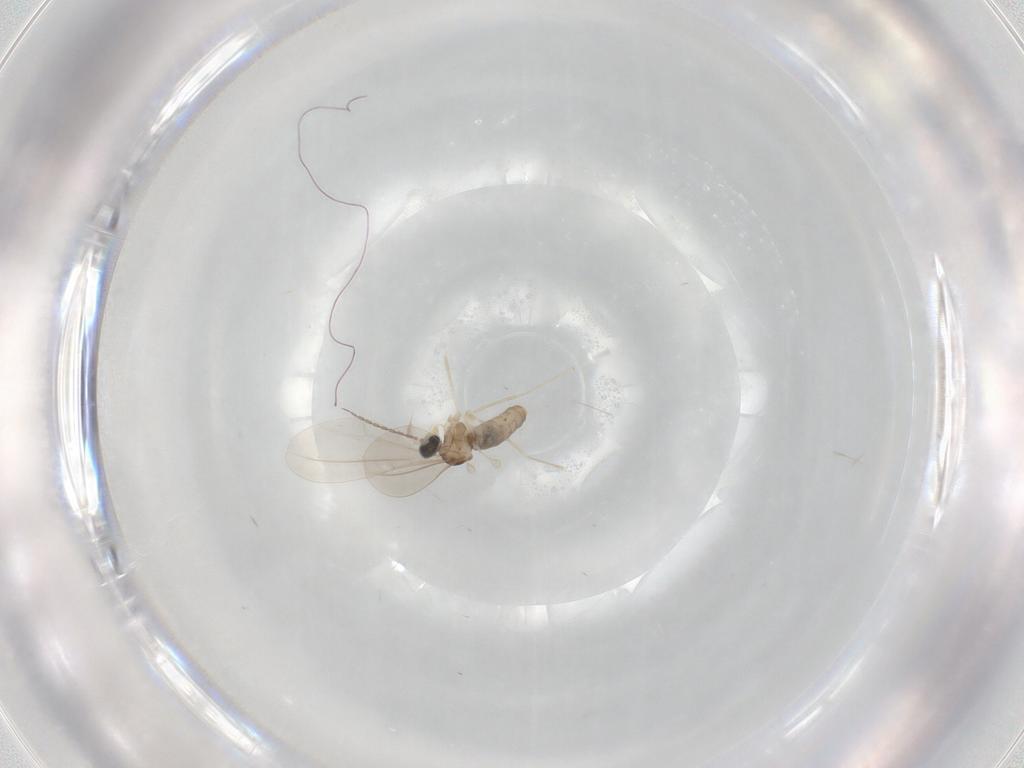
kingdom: Animalia
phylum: Arthropoda
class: Insecta
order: Diptera
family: Cecidomyiidae
